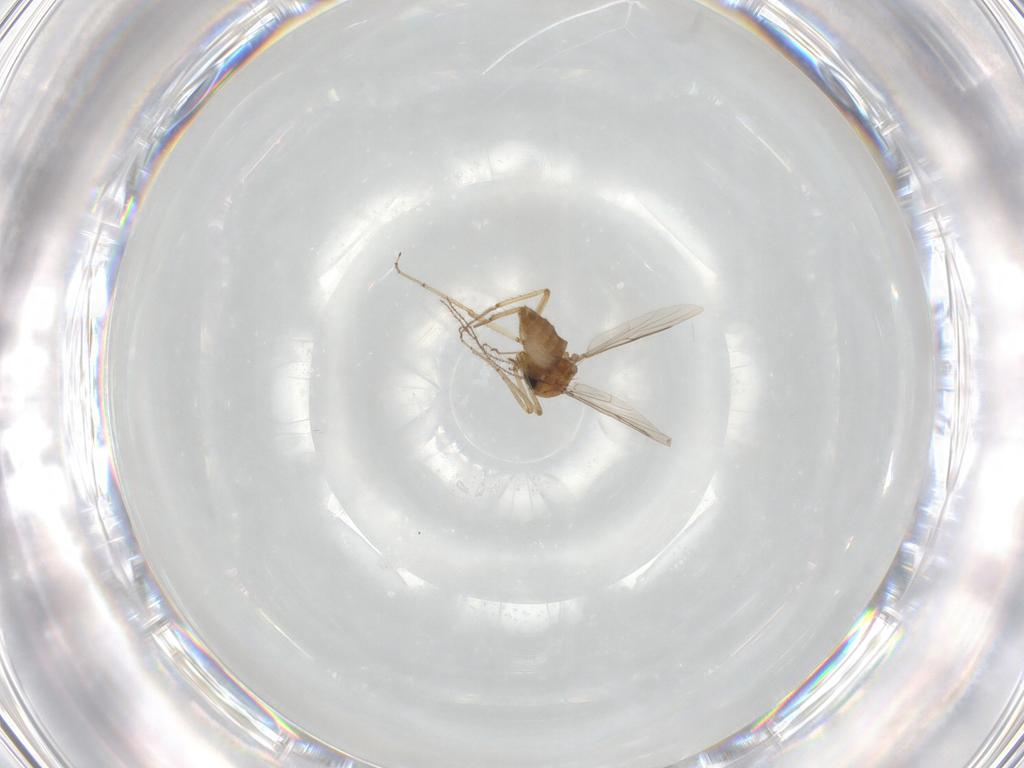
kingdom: Animalia
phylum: Arthropoda
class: Insecta
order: Diptera
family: Ceratopogonidae
